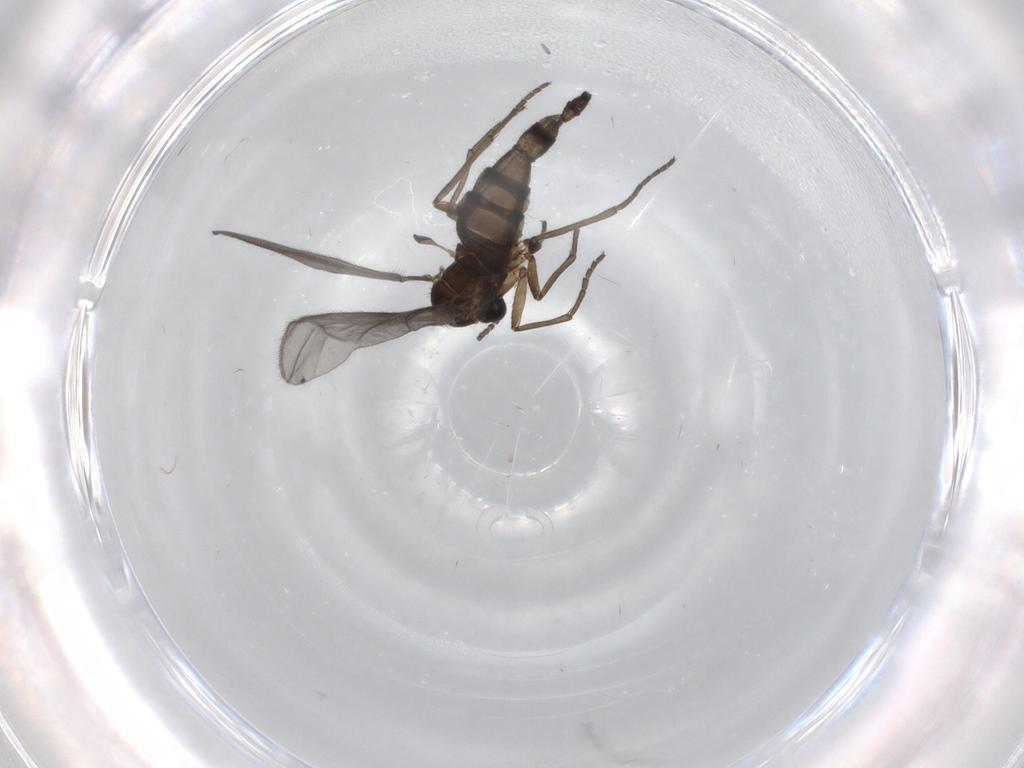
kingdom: Animalia
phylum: Arthropoda
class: Insecta
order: Diptera
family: Sciaridae
